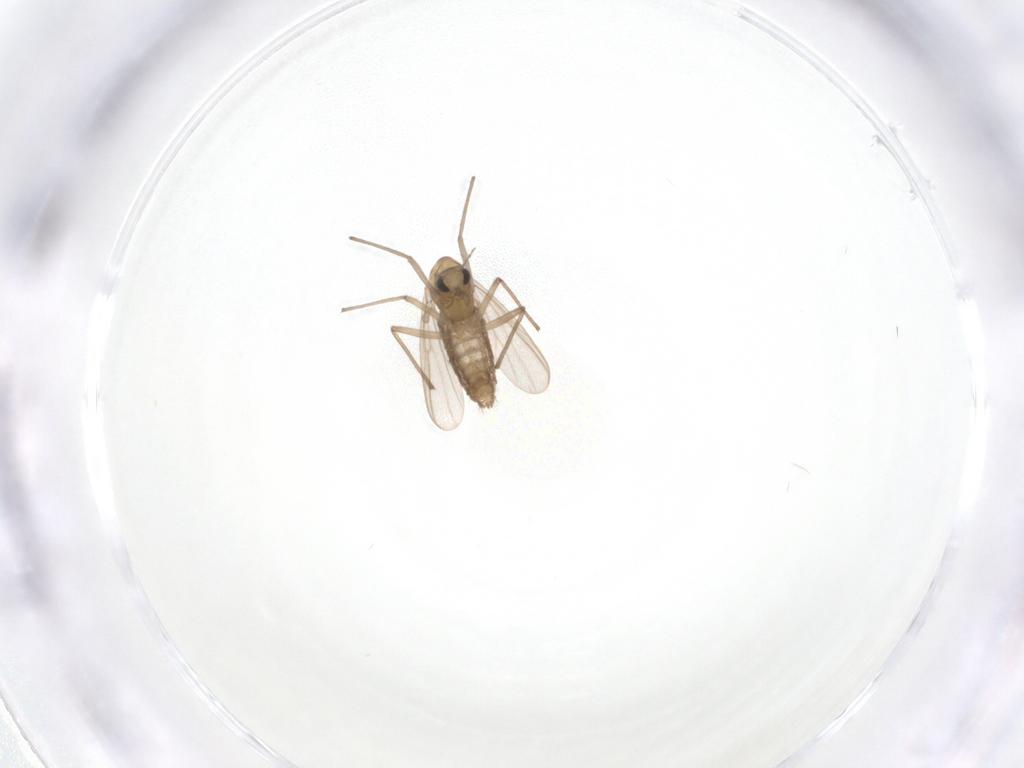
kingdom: Animalia
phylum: Arthropoda
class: Insecta
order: Diptera
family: Chironomidae
